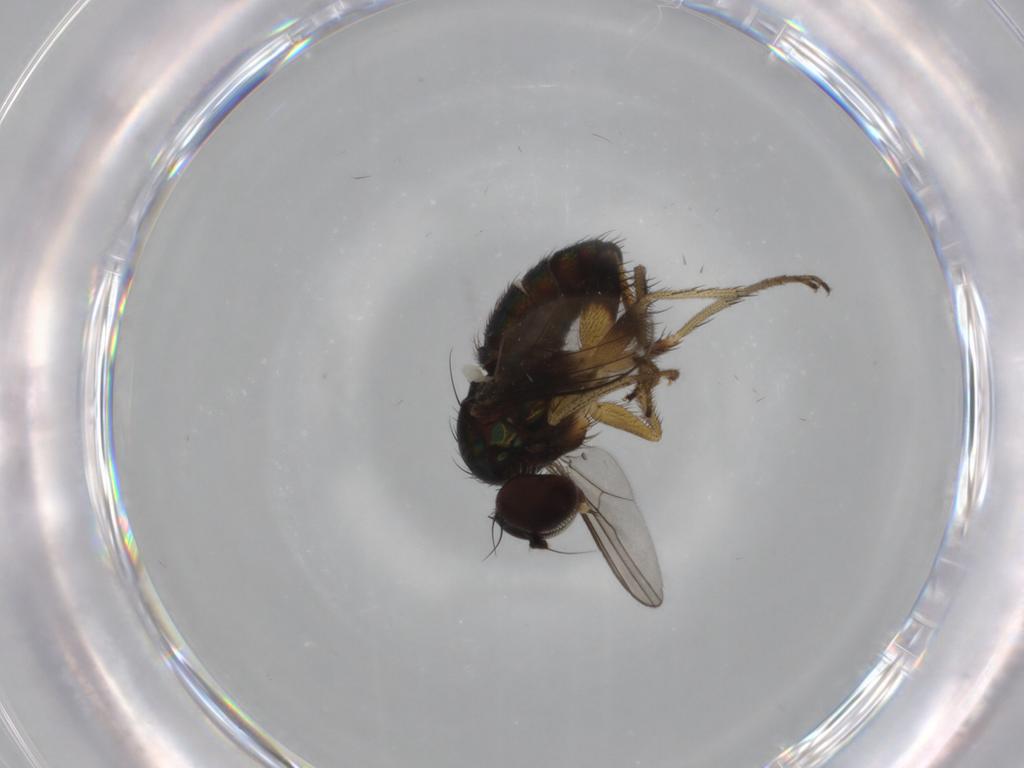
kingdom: Animalia
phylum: Arthropoda
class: Insecta
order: Diptera
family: Dolichopodidae
